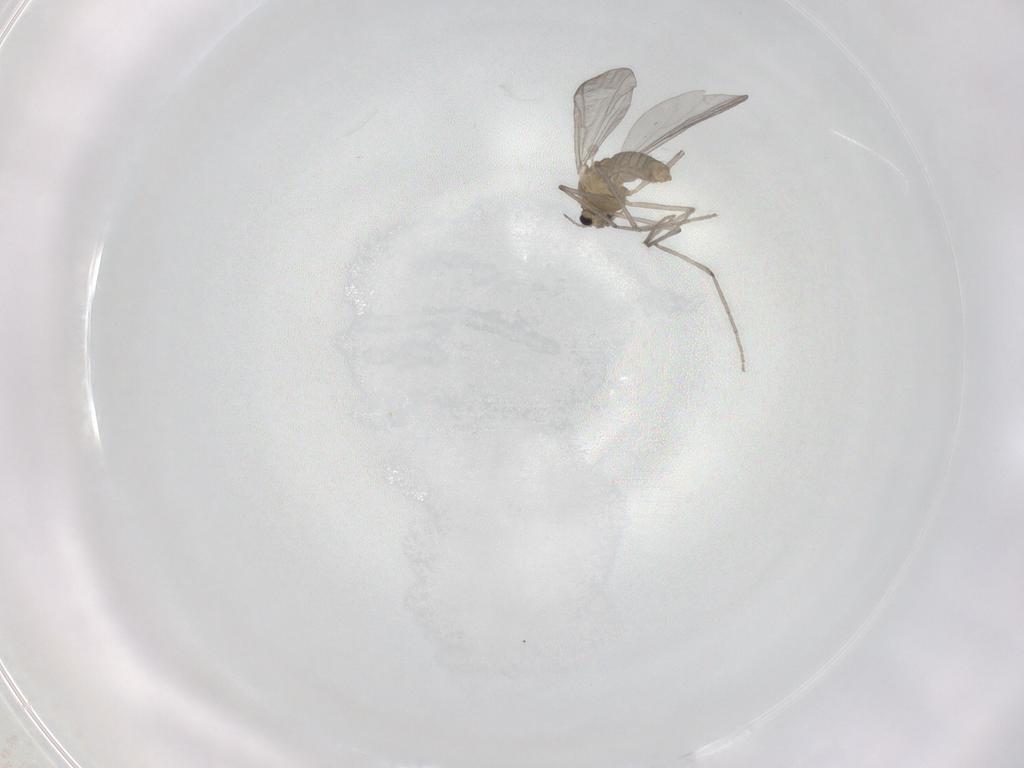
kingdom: Animalia
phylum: Arthropoda
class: Insecta
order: Diptera
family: Chironomidae
